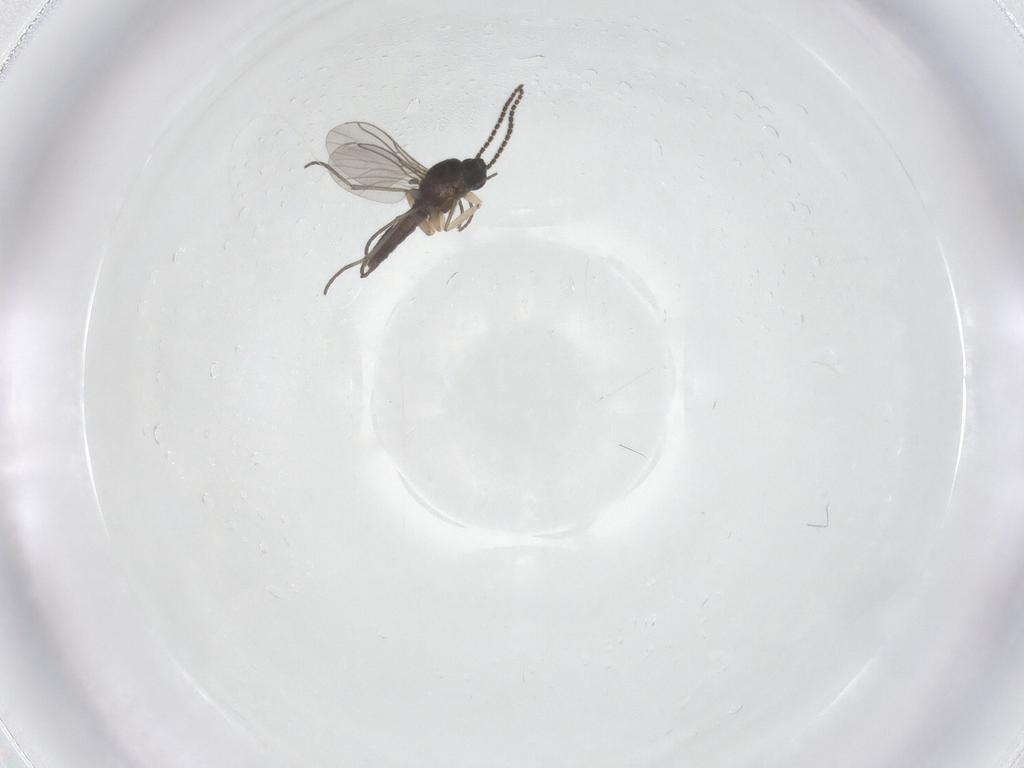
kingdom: Animalia
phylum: Arthropoda
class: Insecta
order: Diptera
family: Sciaridae
